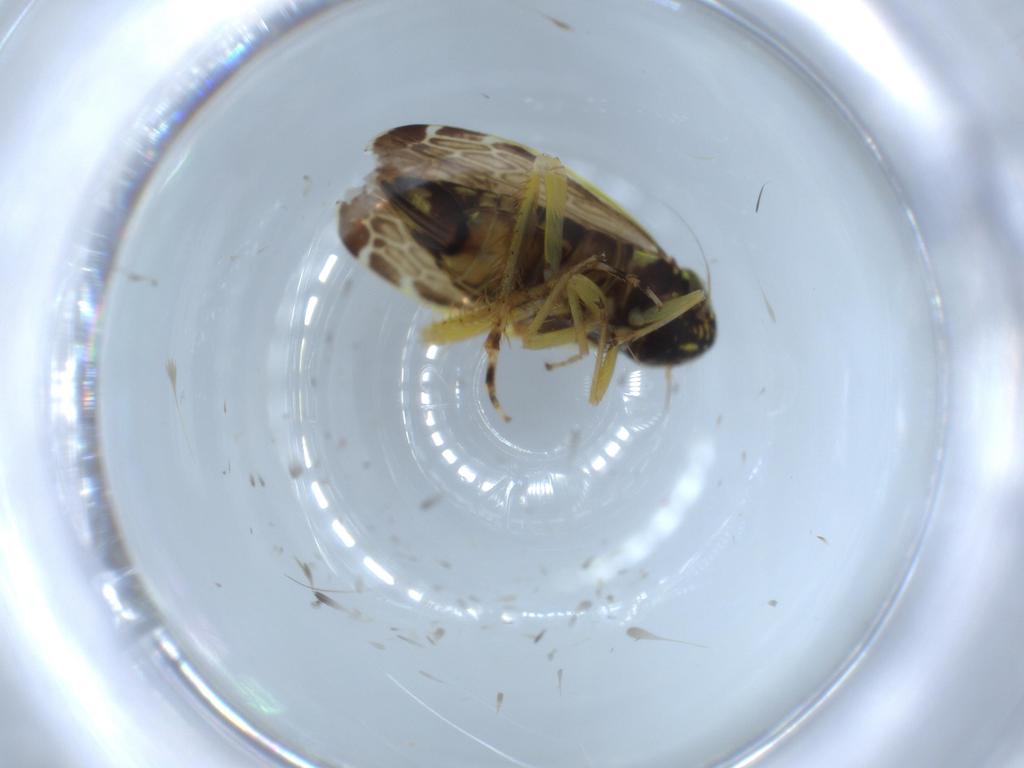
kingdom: Animalia
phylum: Arthropoda
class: Insecta
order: Hemiptera
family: Cicadellidae
